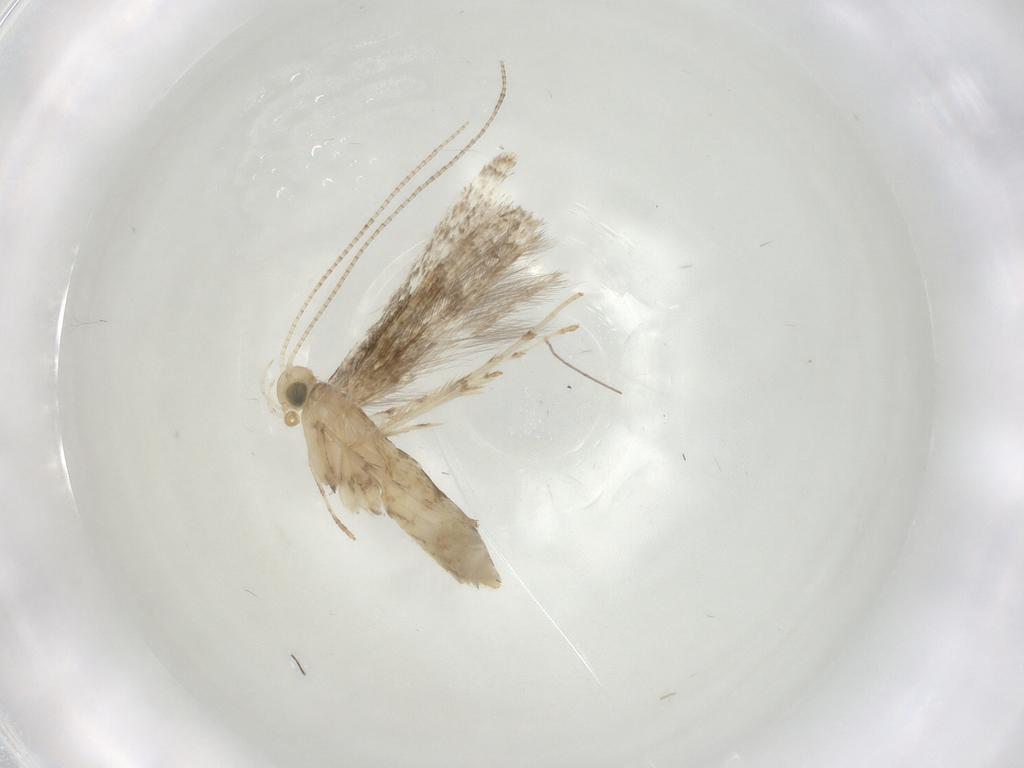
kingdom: Animalia
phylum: Arthropoda
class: Insecta
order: Lepidoptera
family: Gracillariidae
